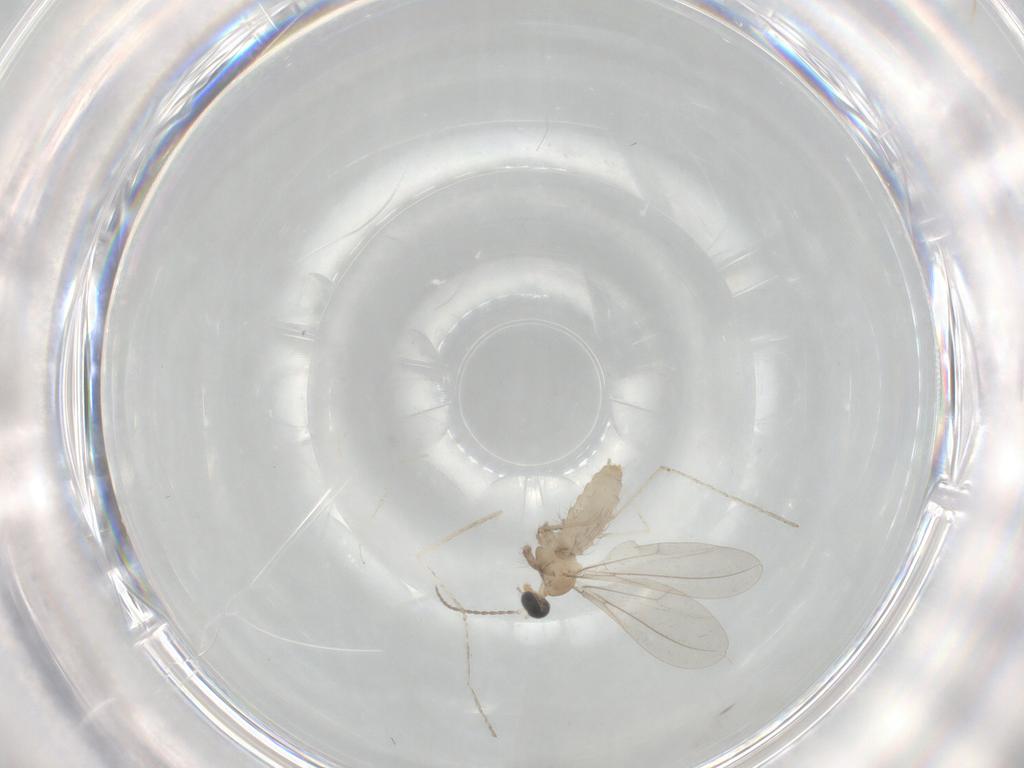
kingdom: Animalia
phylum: Arthropoda
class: Insecta
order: Diptera
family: Cecidomyiidae
